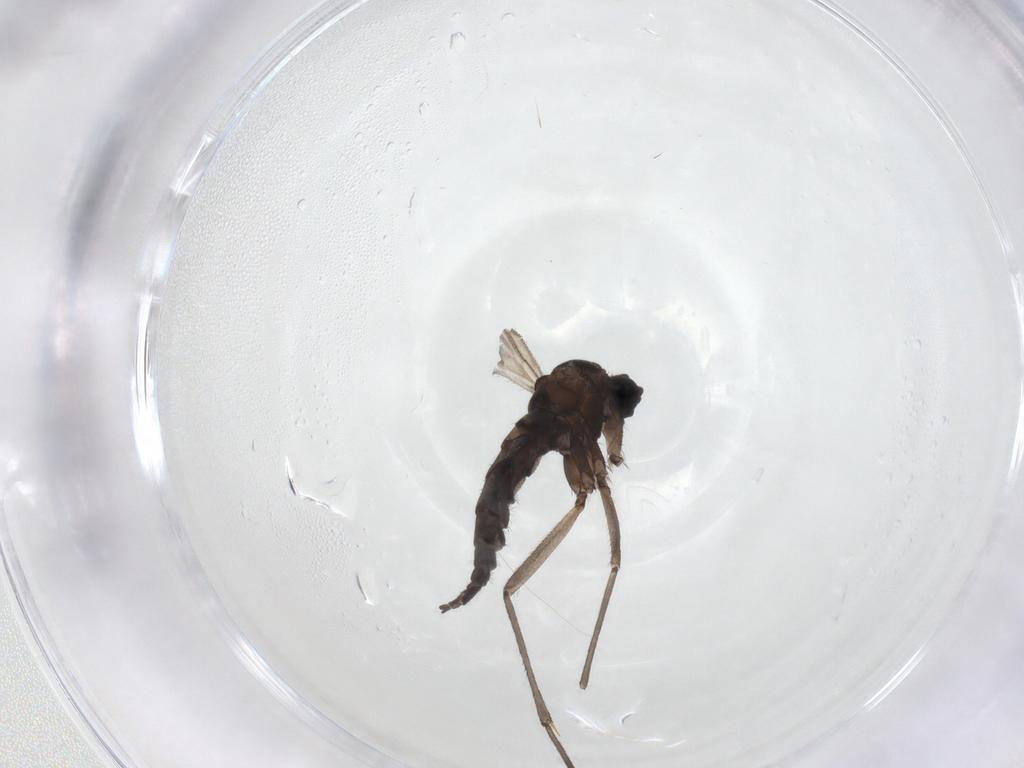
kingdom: Animalia
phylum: Arthropoda
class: Insecta
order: Diptera
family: Sciaridae
